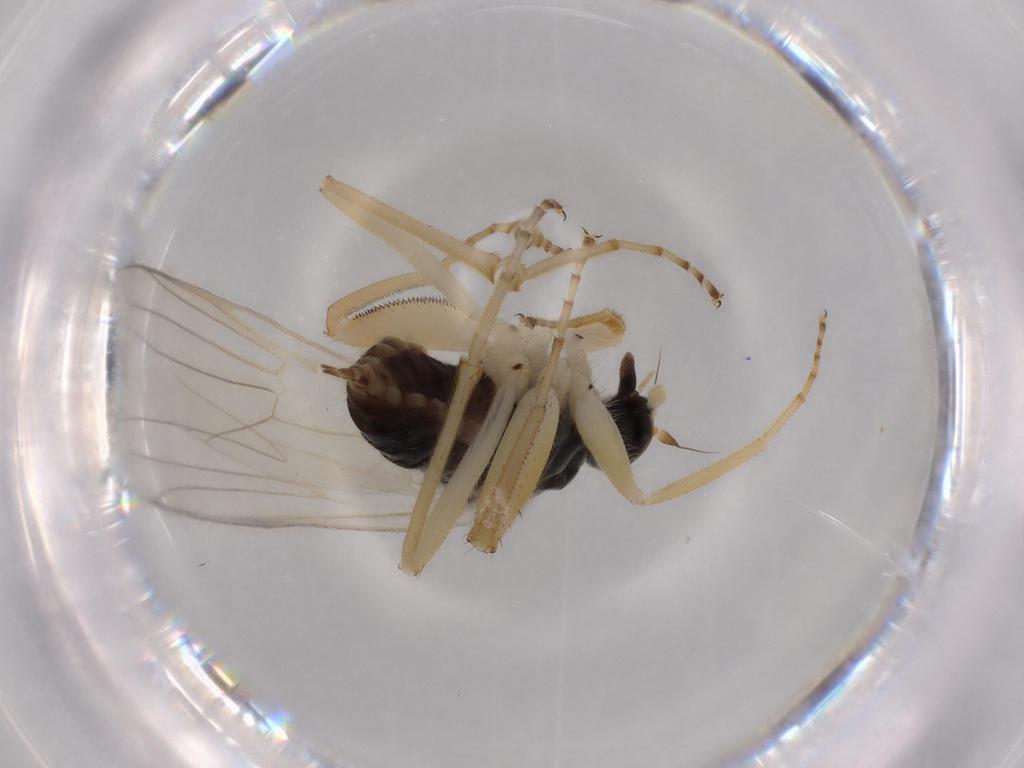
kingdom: Animalia
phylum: Arthropoda
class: Insecta
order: Diptera
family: Hybotidae
